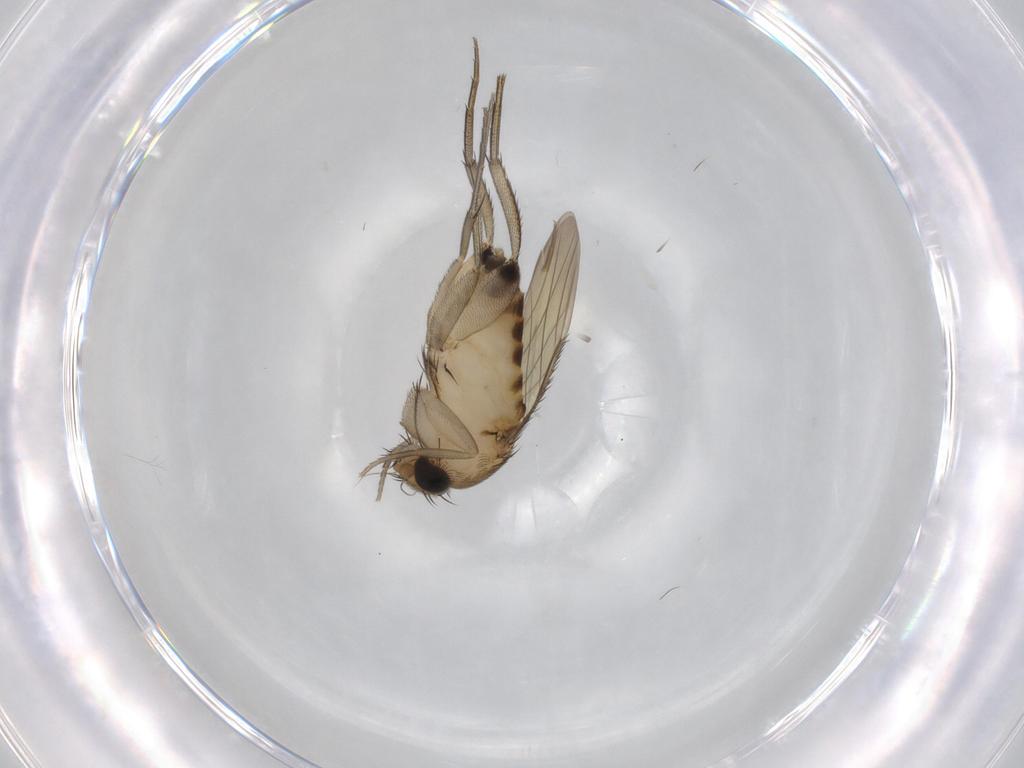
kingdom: Animalia
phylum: Arthropoda
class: Insecta
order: Diptera
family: Phoridae
